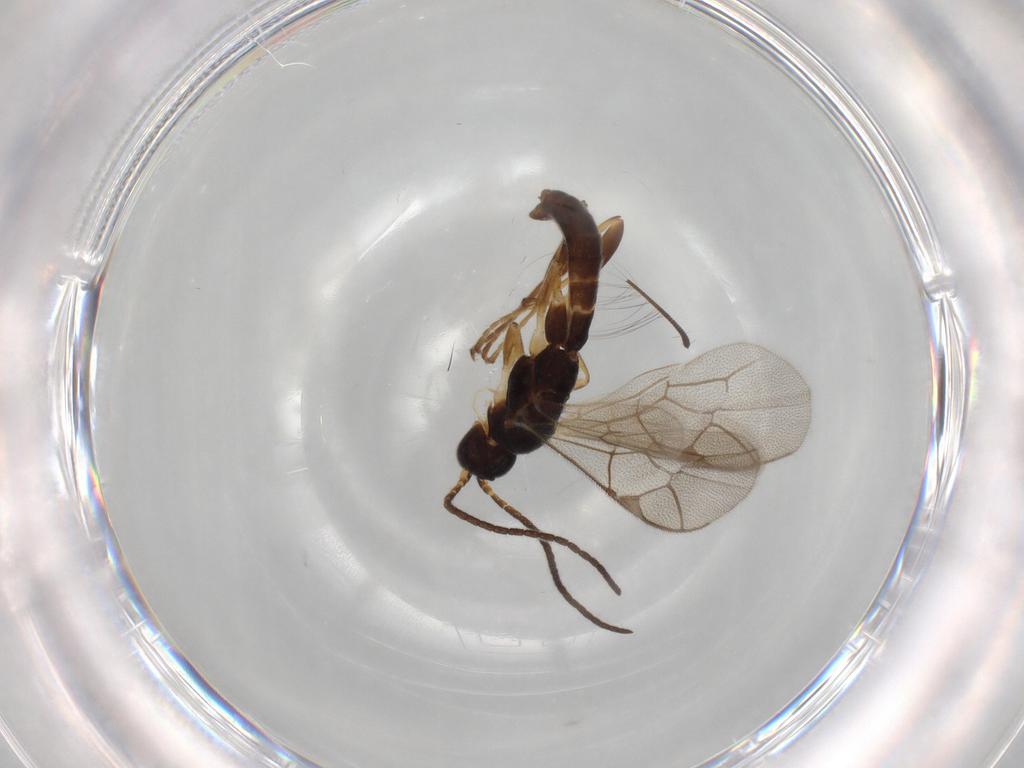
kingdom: Animalia
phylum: Arthropoda
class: Insecta
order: Hymenoptera
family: Ichneumonidae
